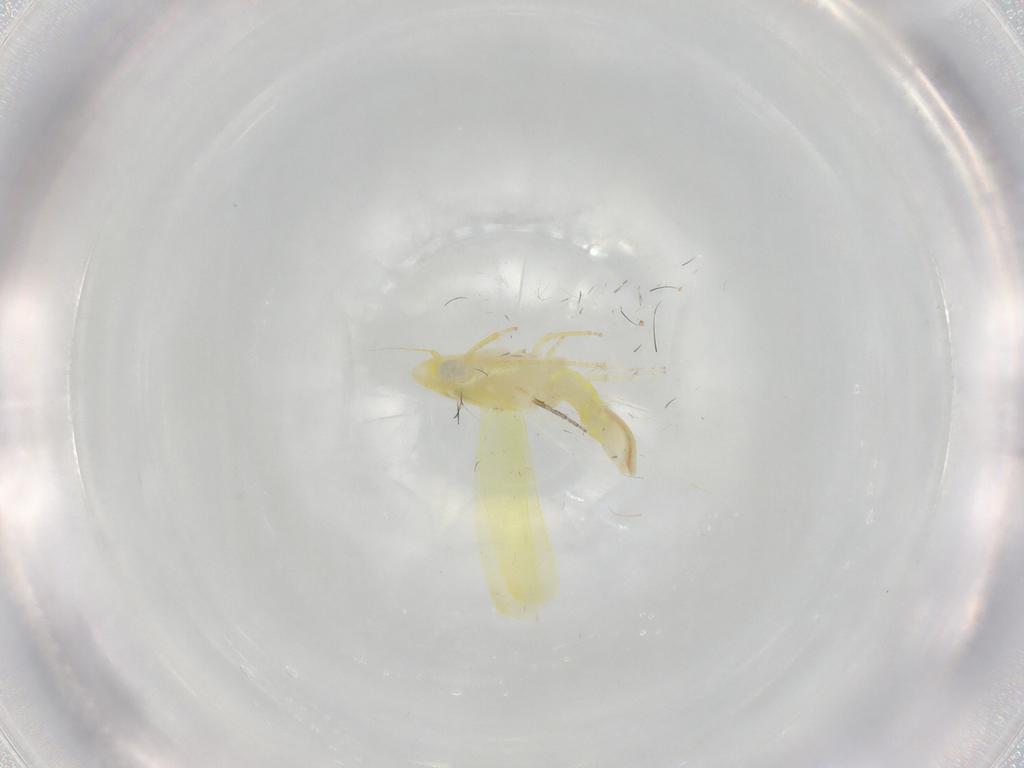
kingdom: Animalia
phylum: Arthropoda
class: Insecta
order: Hemiptera
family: Cicadellidae
